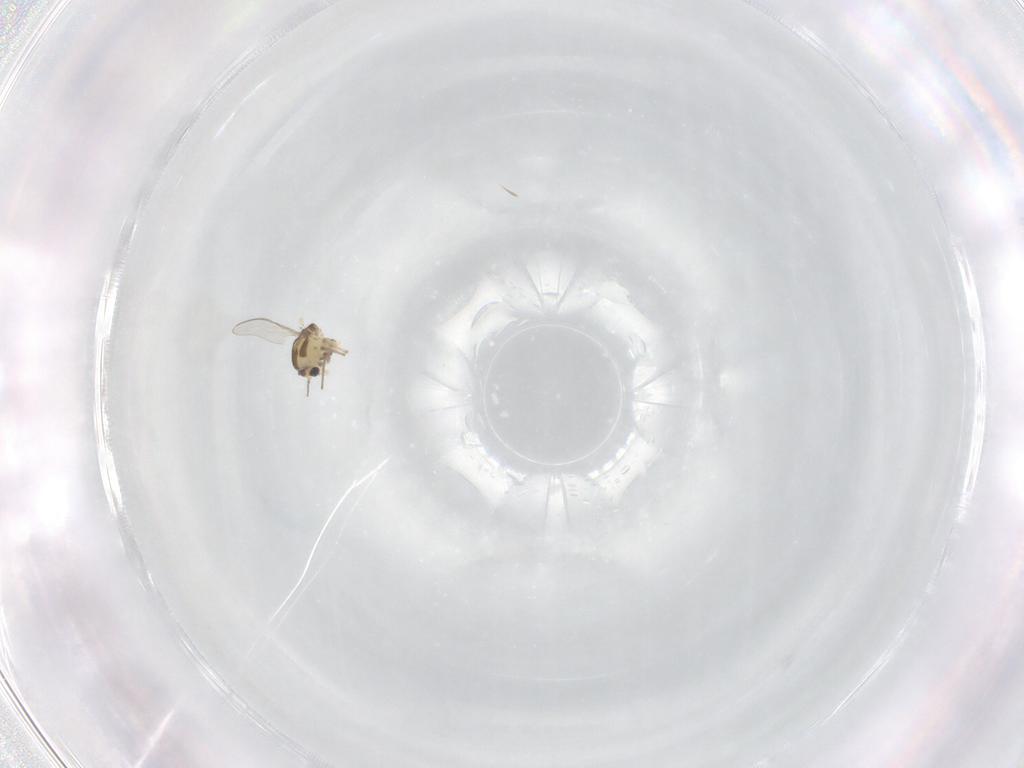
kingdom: Animalia
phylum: Arthropoda
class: Insecta
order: Diptera
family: Psychodidae
